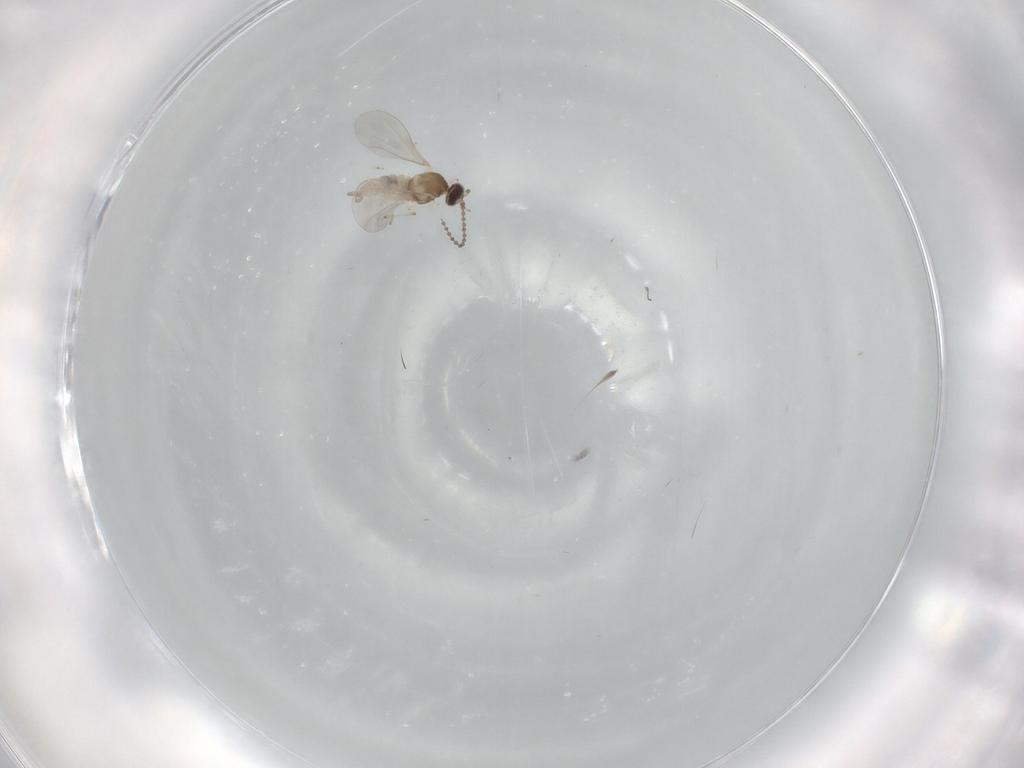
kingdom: Animalia
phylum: Arthropoda
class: Insecta
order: Diptera
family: Cecidomyiidae
